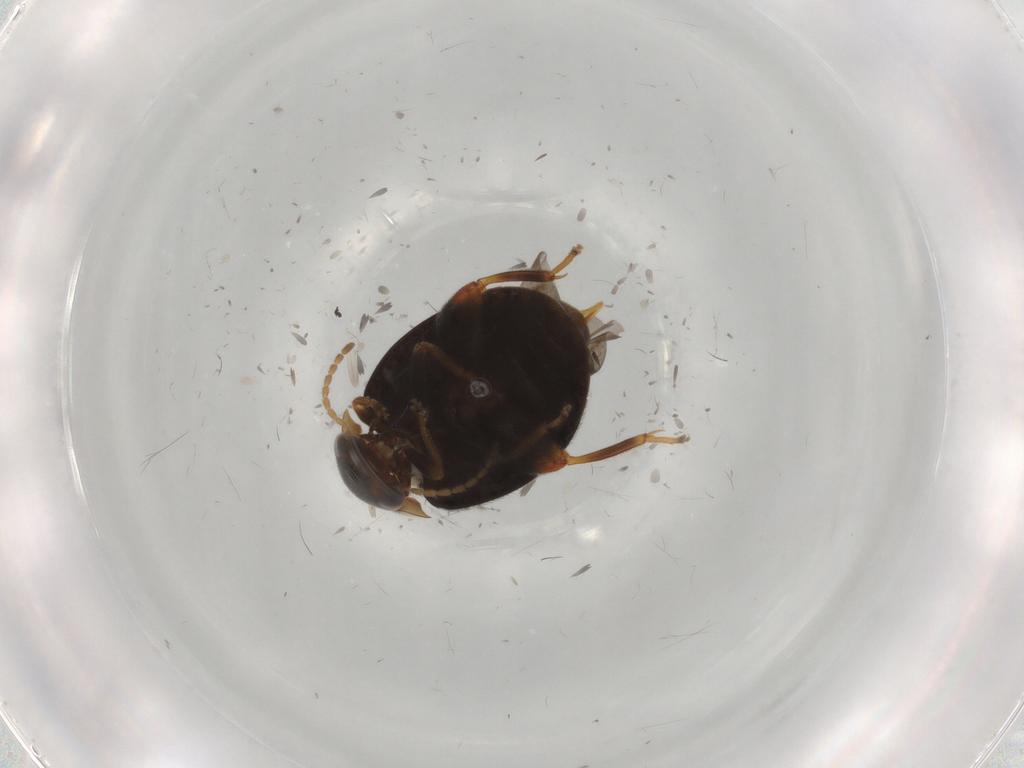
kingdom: Animalia
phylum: Arthropoda
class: Insecta
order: Coleoptera
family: Scirtidae
